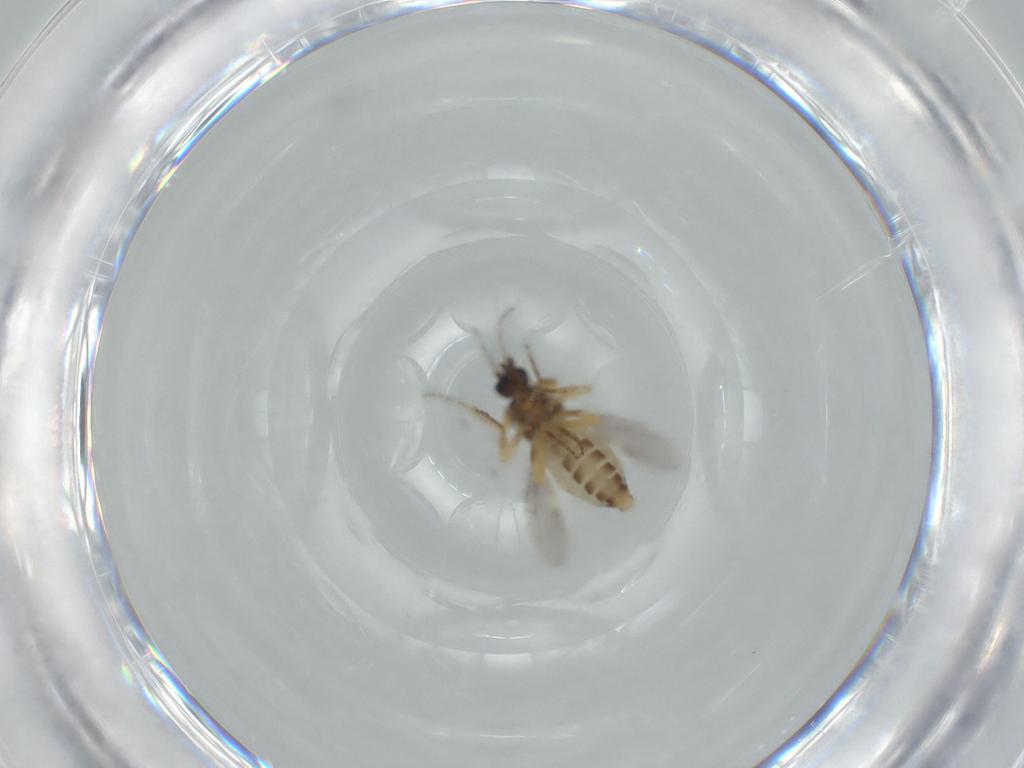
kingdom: Animalia
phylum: Arthropoda
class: Insecta
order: Diptera
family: Ceratopogonidae
